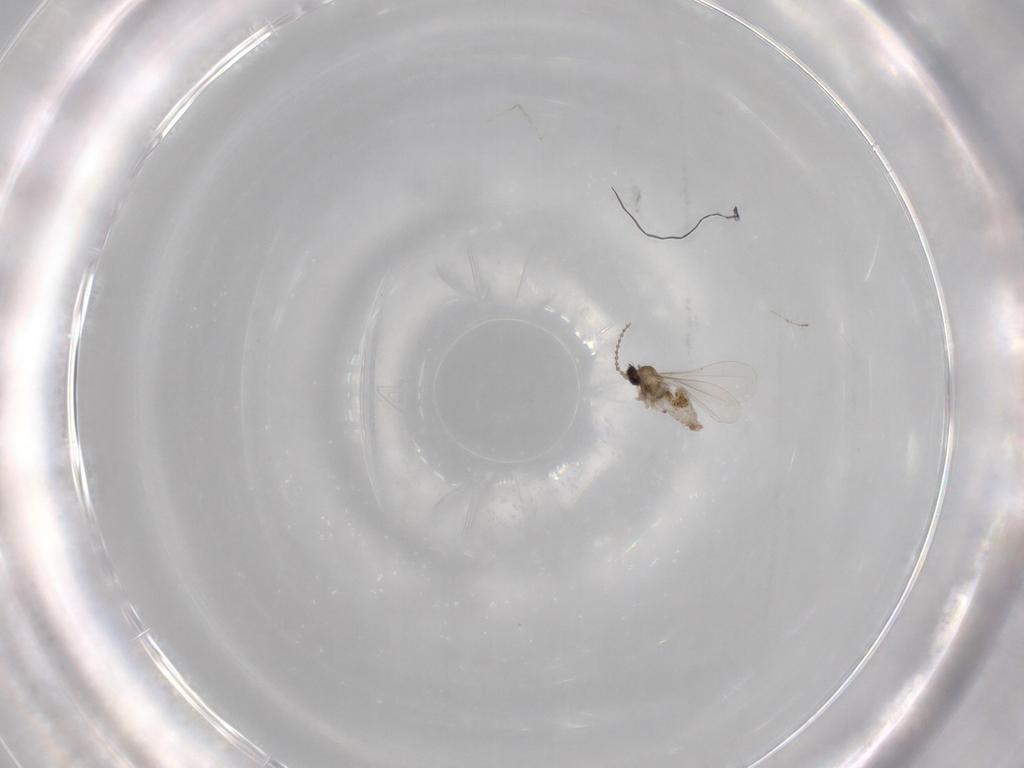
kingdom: Animalia
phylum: Arthropoda
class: Insecta
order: Diptera
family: Cecidomyiidae
